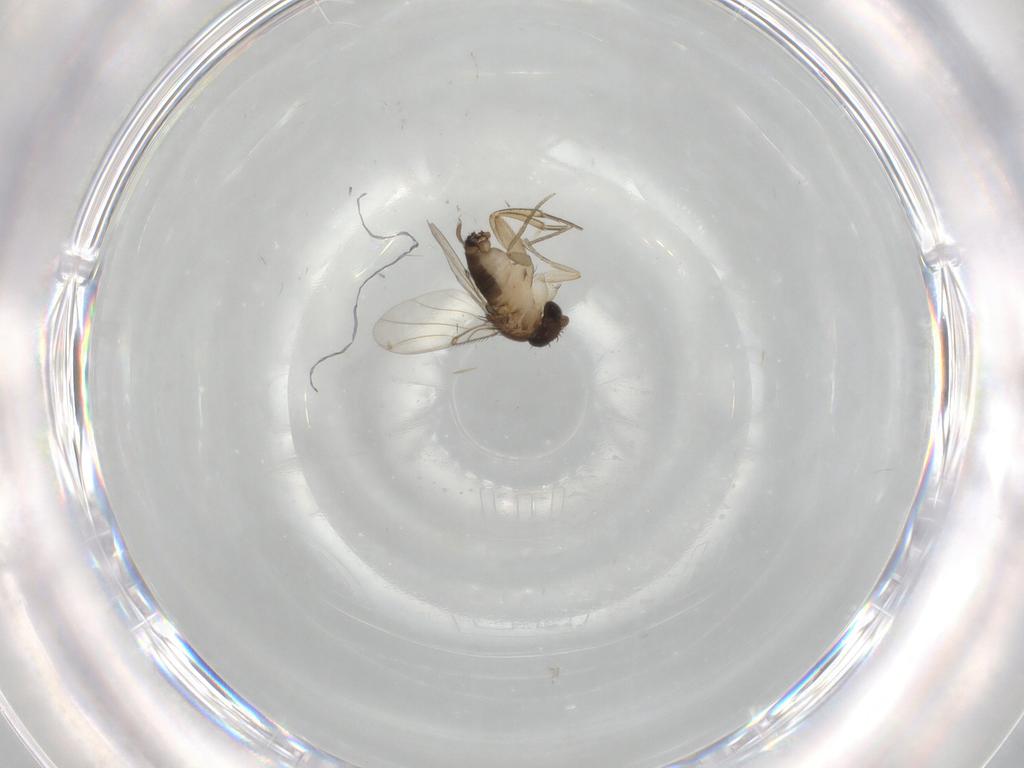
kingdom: Animalia
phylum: Arthropoda
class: Insecta
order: Diptera
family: Cecidomyiidae
